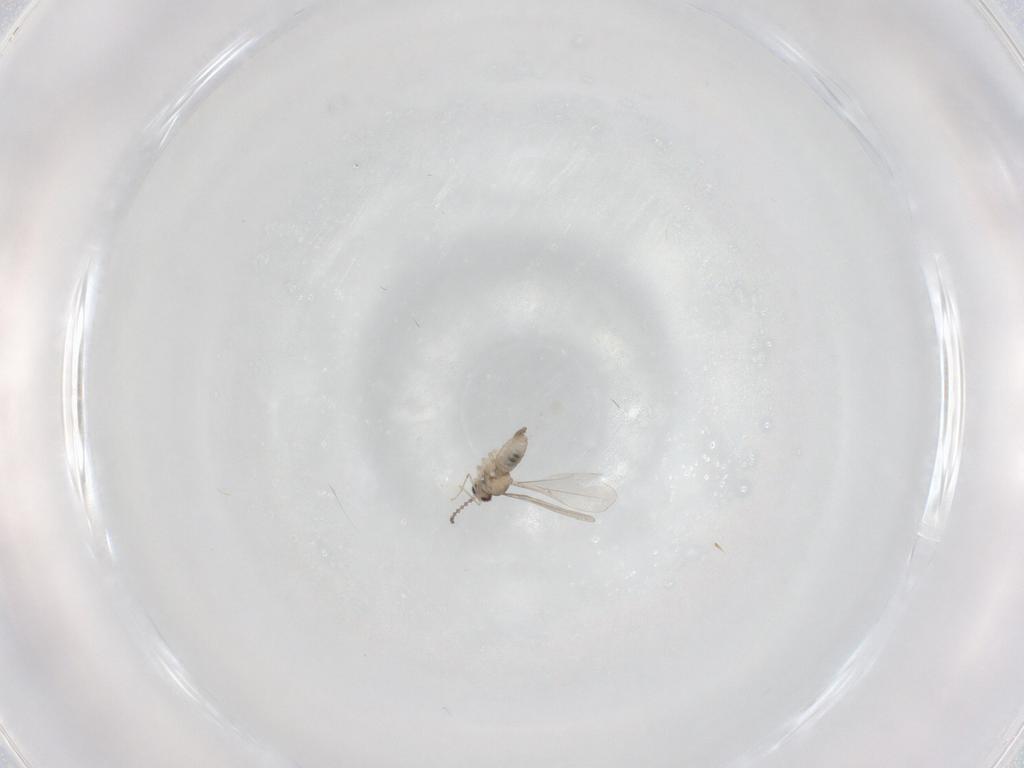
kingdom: Animalia
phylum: Arthropoda
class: Insecta
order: Diptera
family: Cecidomyiidae
